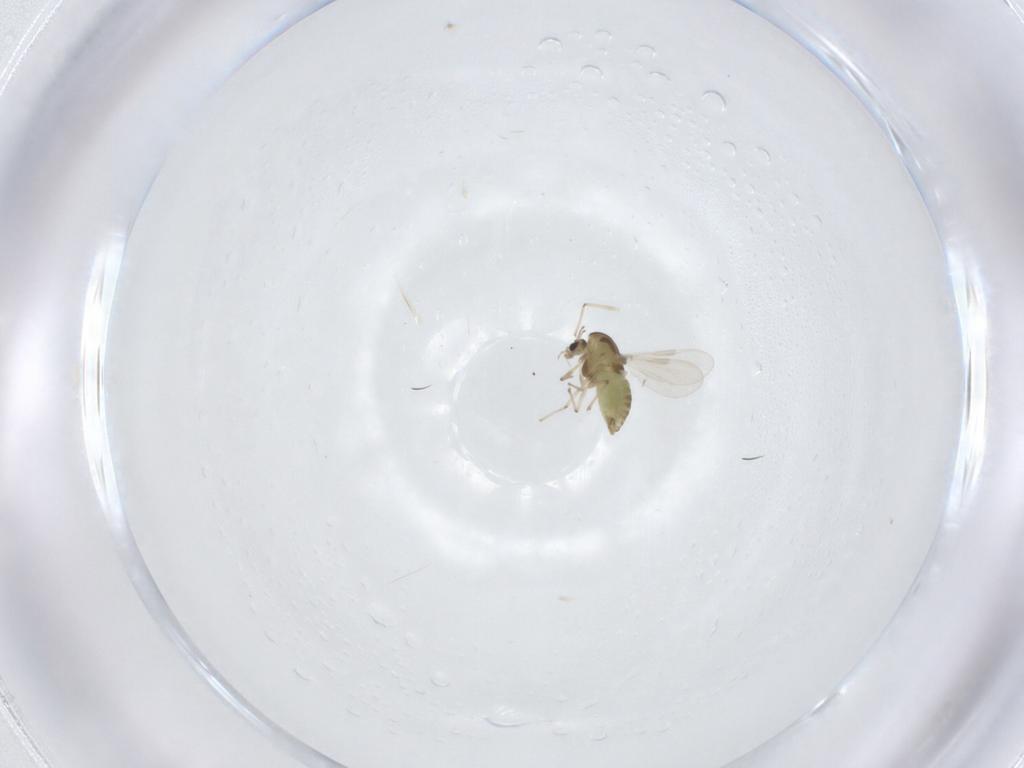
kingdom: Animalia
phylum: Arthropoda
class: Insecta
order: Diptera
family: Chironomidae
